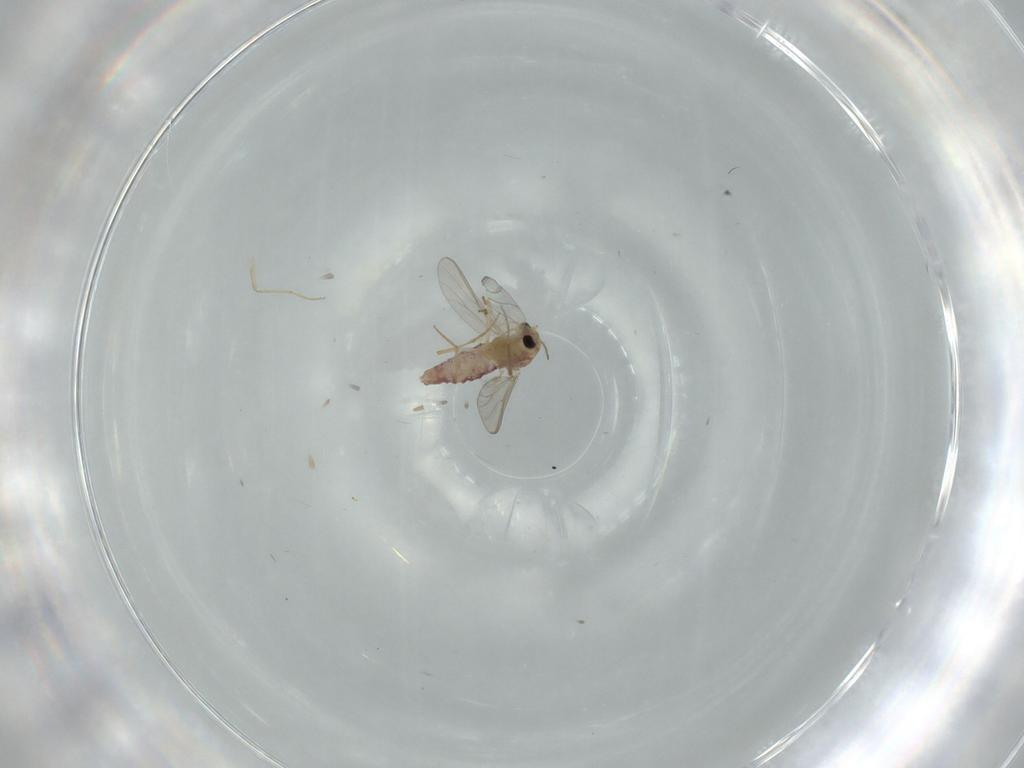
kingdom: Animalia
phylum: Arthropoda
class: Insecta
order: Diptera
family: Chironomidae
